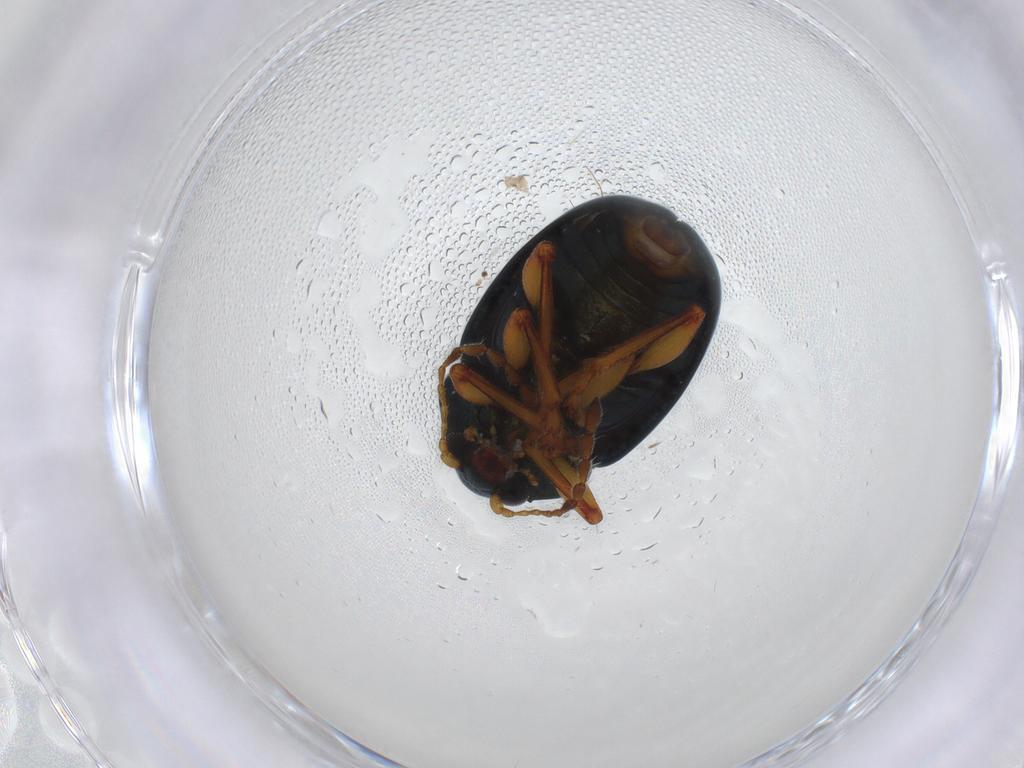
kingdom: Animalia
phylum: Arthropoda
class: Insecta
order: Coleoptera
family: Chrysomelidae
